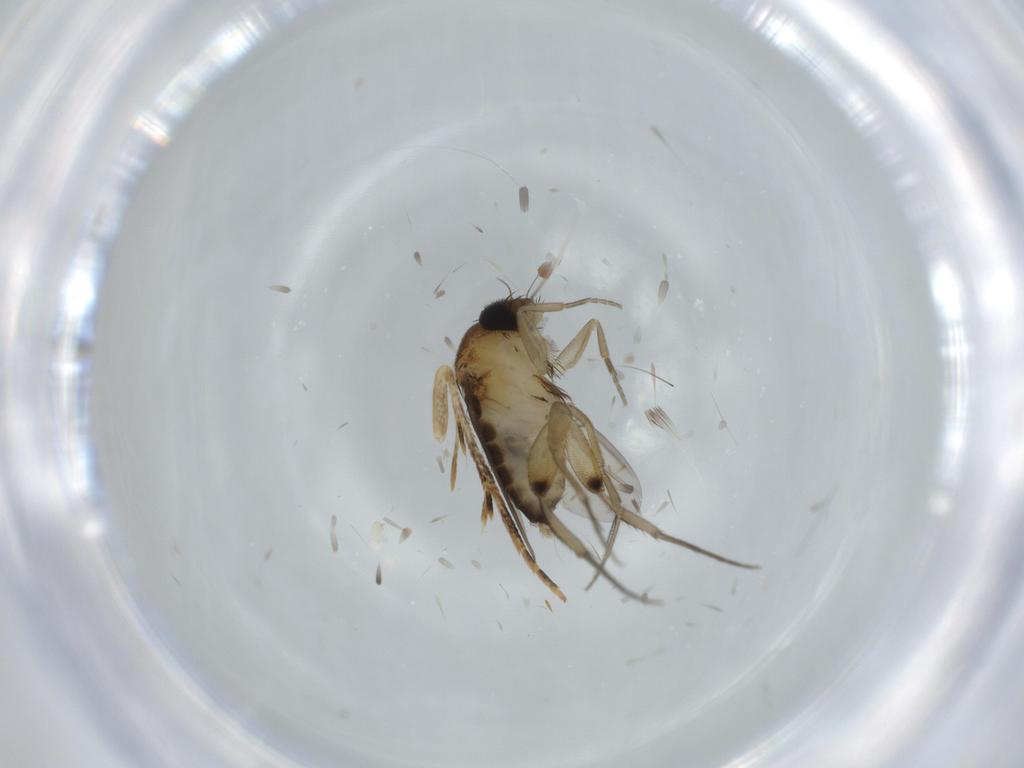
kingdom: Animalia
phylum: Arthropoda
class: Insecta
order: Diptera
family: Phoridae
